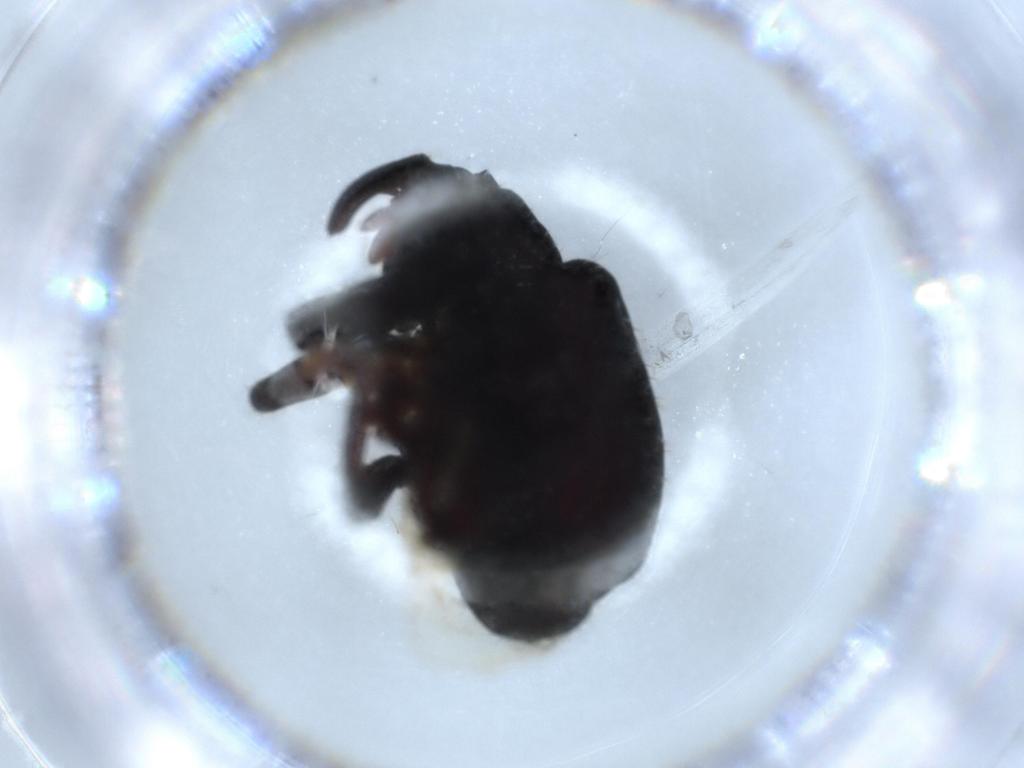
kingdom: Animalia
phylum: Arthropoda
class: Insecta
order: Coleoptera
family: Curculionidae
